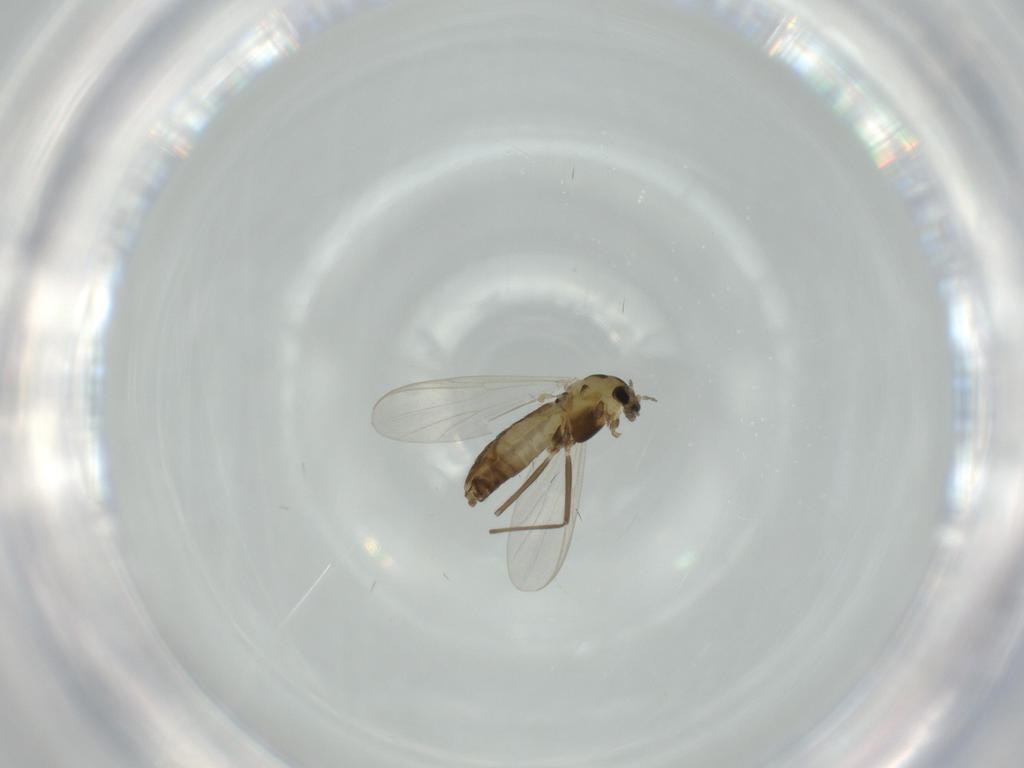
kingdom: Animalia
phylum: Arthropoda
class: Insecta
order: Diptera
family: Chironomidae
